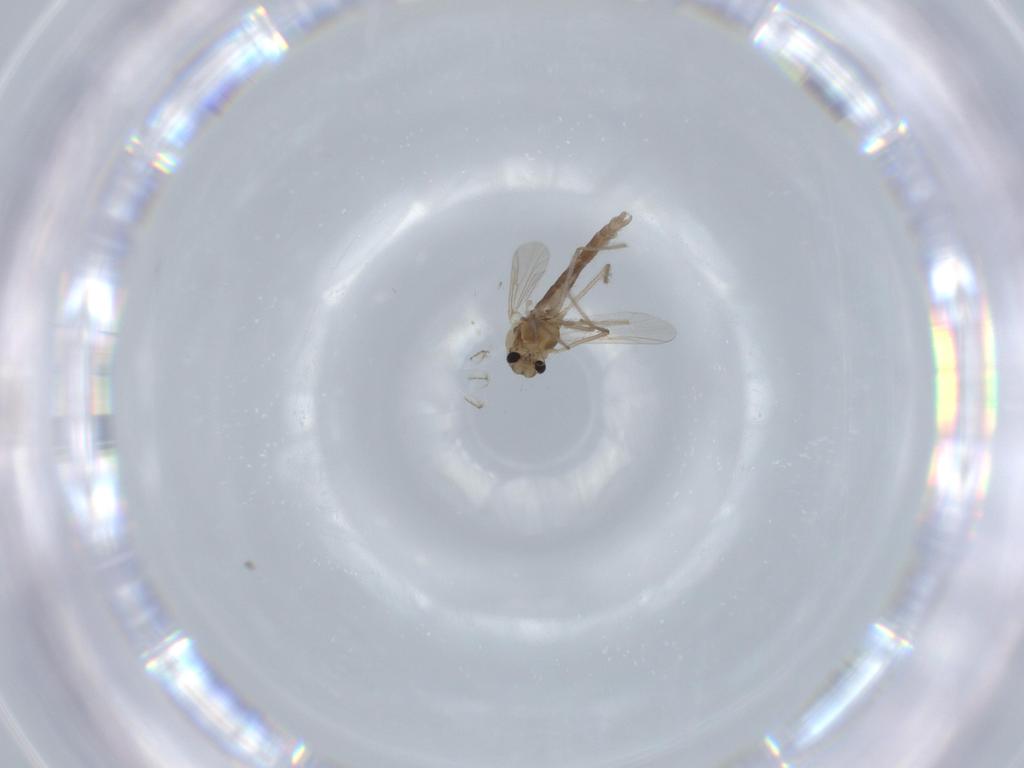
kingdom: Animalia
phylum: Arthropoda
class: Insecta
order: Diptera
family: Chironomidae
